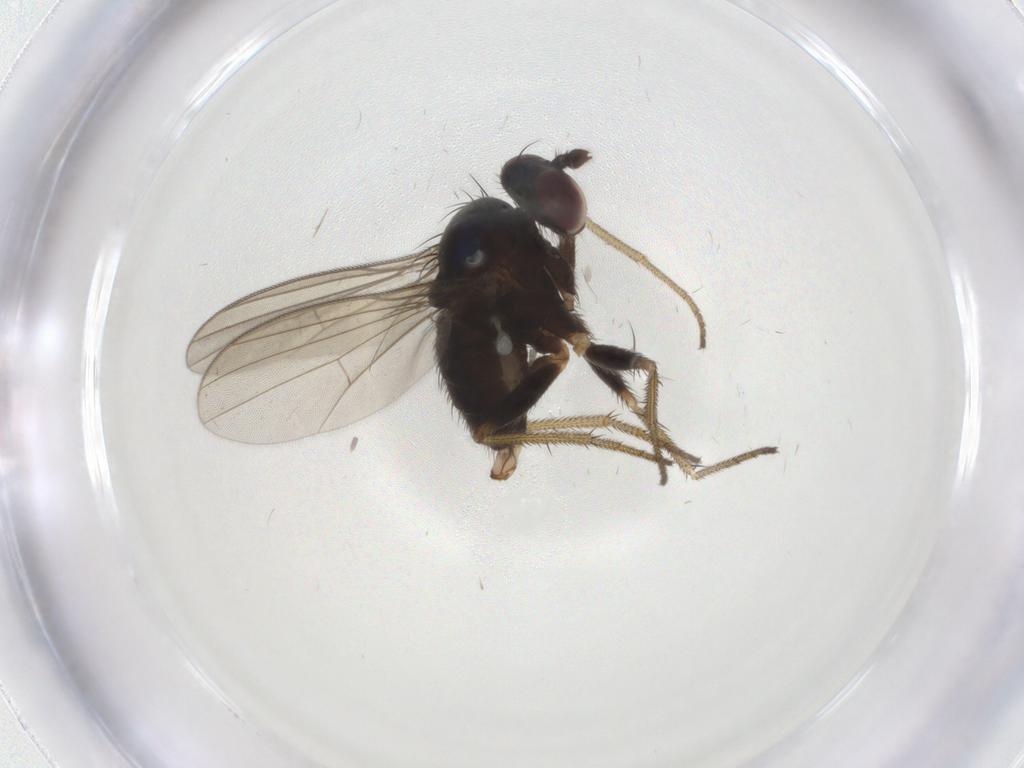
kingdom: Animalia
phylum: Arthropoda
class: Insecta
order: Diptera
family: Dolichopodidae
